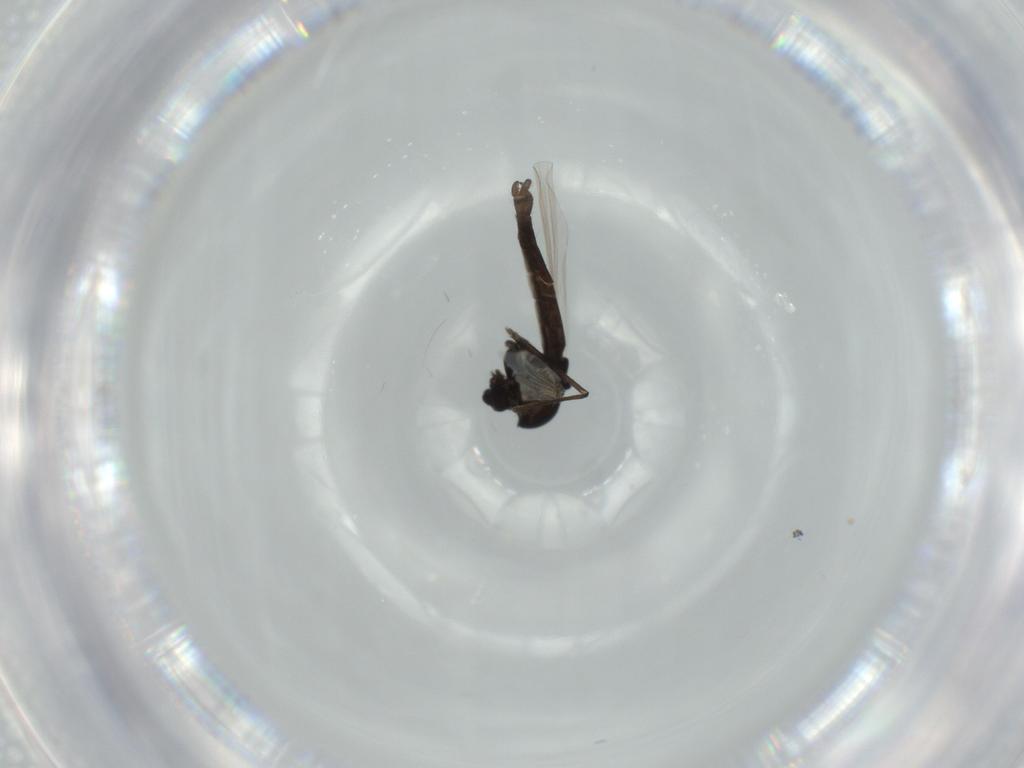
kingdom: Animalia
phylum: Arthropoda
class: Insecta
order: Diptera
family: Chironomidae
